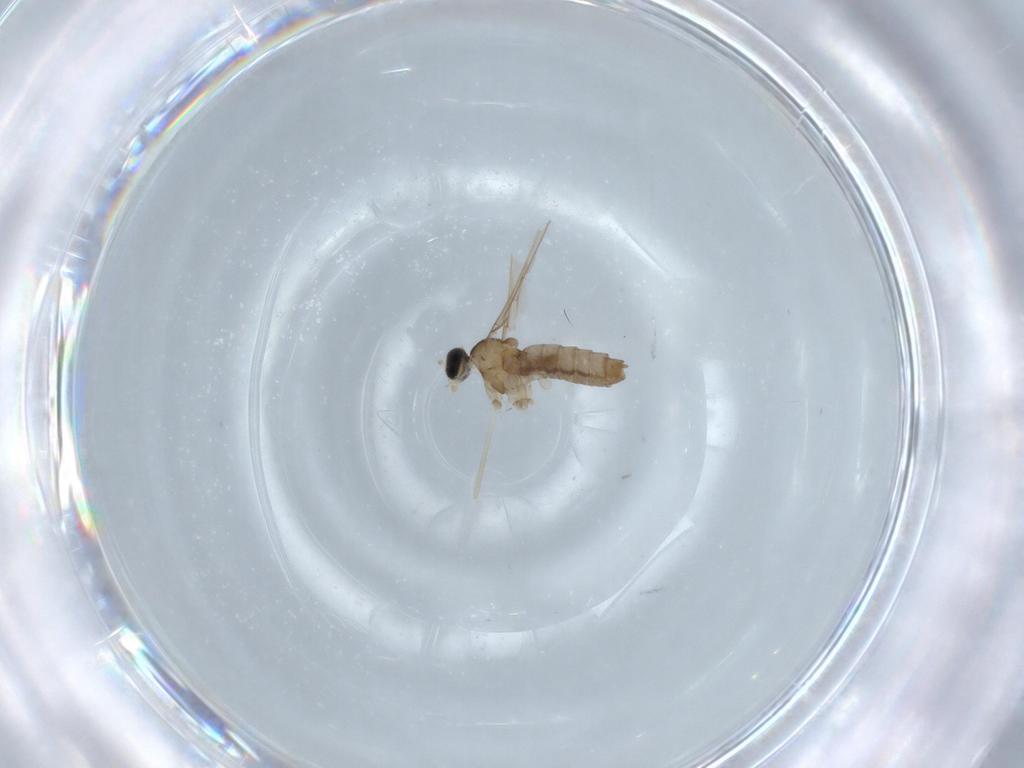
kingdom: Animalia
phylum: Arthropoda
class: Insecta
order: Diptera
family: Cecidomyiidae
